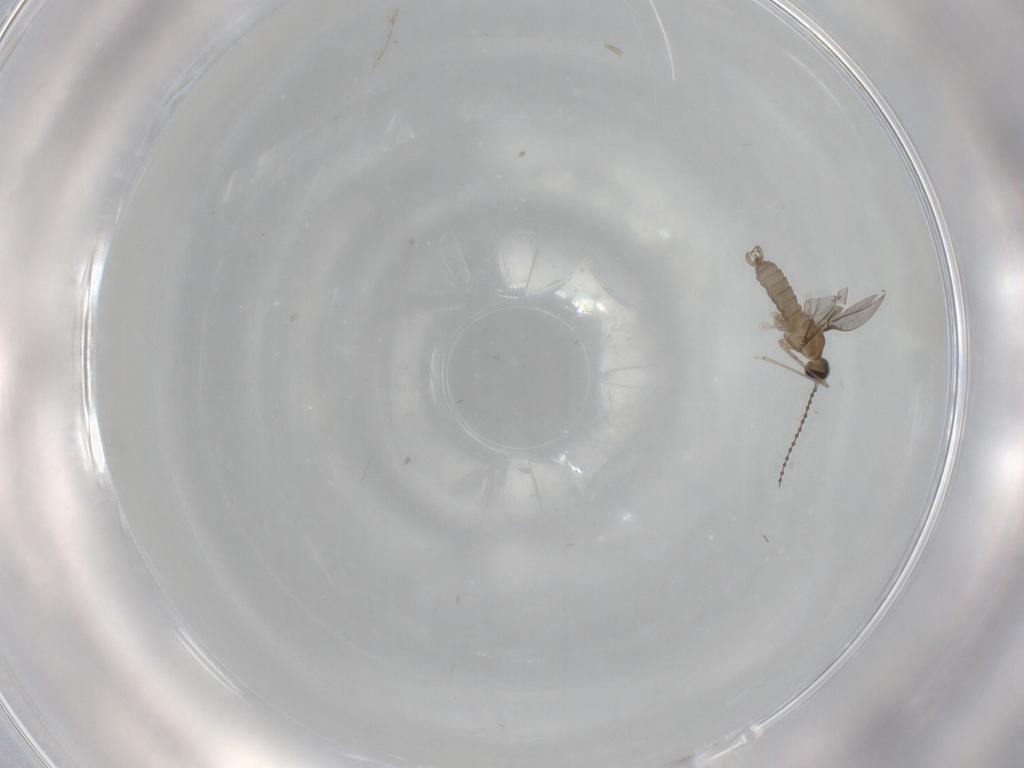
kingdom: Animalia
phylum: Arthropoda
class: Insecta
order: Diptera
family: Cecidomyiidae
